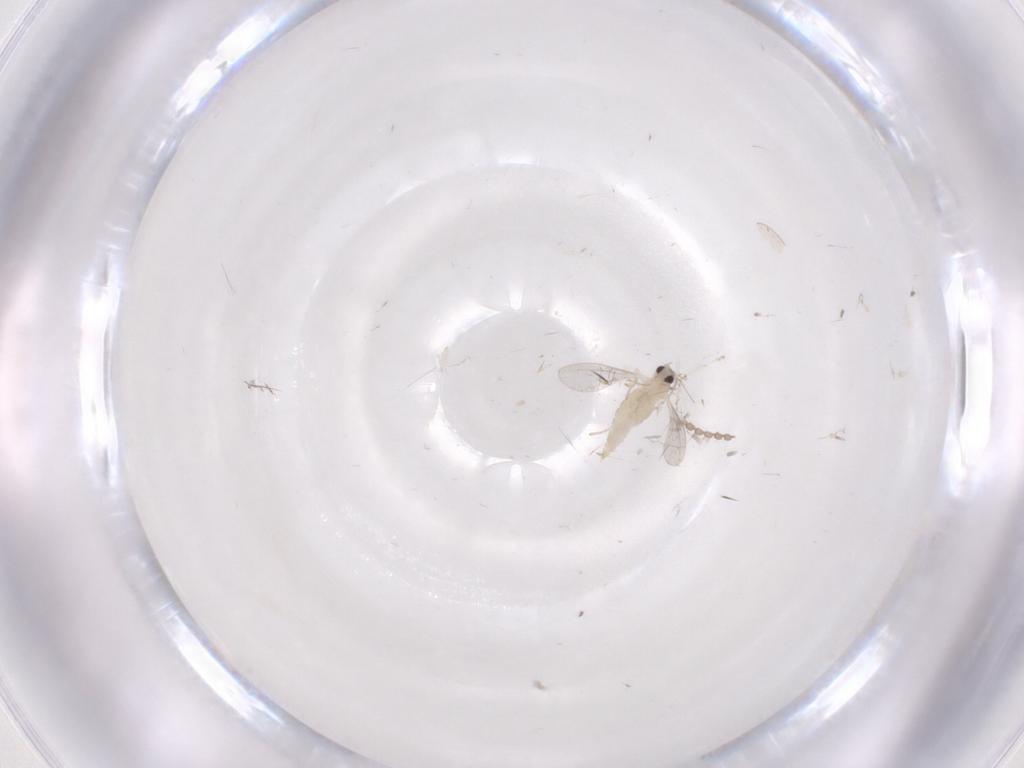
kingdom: Animalia
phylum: Arthropoda
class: Insecta
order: Diptera
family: Cecidomyiidae
